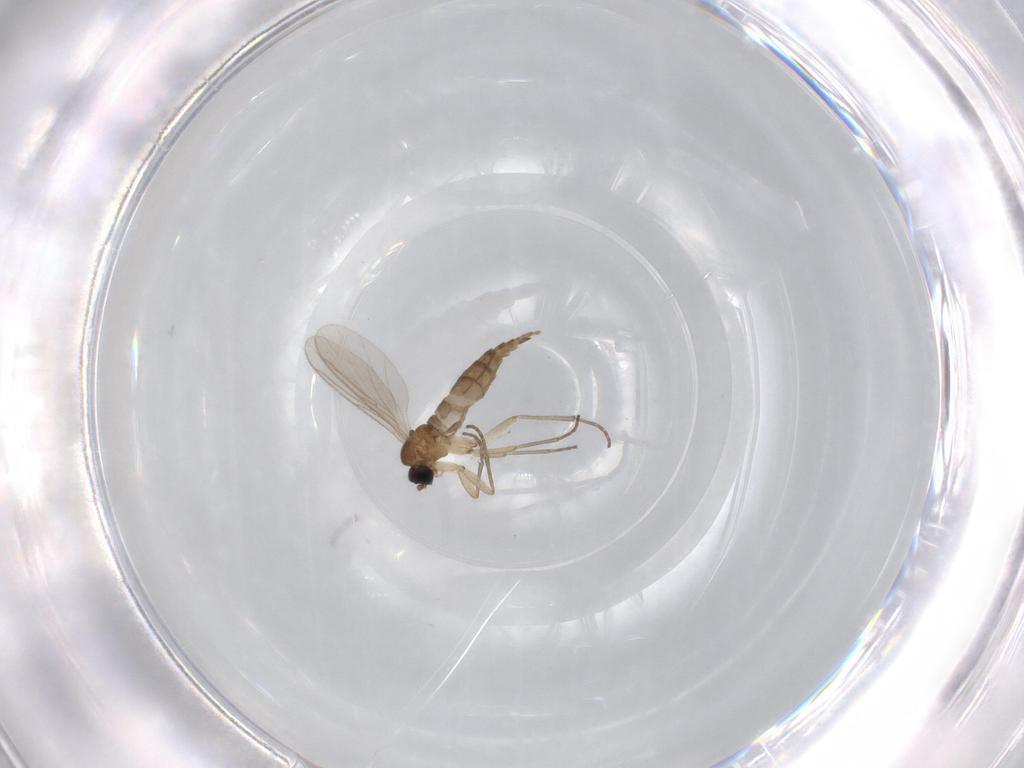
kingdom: Animalia
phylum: Arthropoda
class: Insecta
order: Diptera
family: Sciaridae
